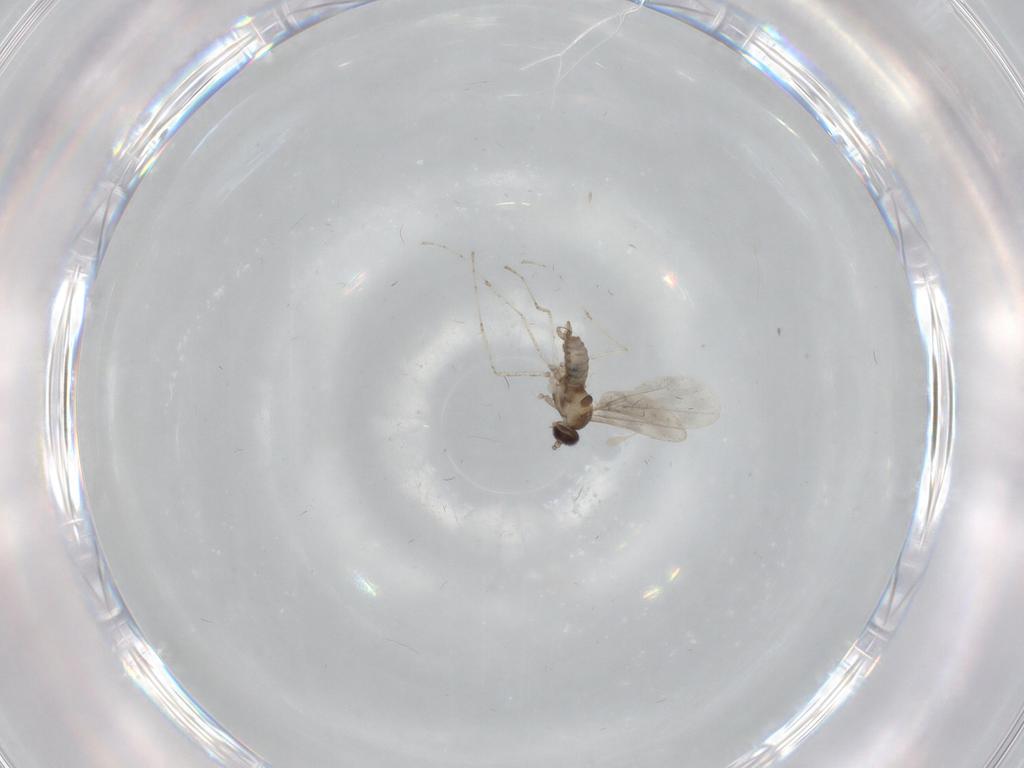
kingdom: Animalia
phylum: Arthropoda
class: Insecta
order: Diptera
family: Cecidomyiidae
